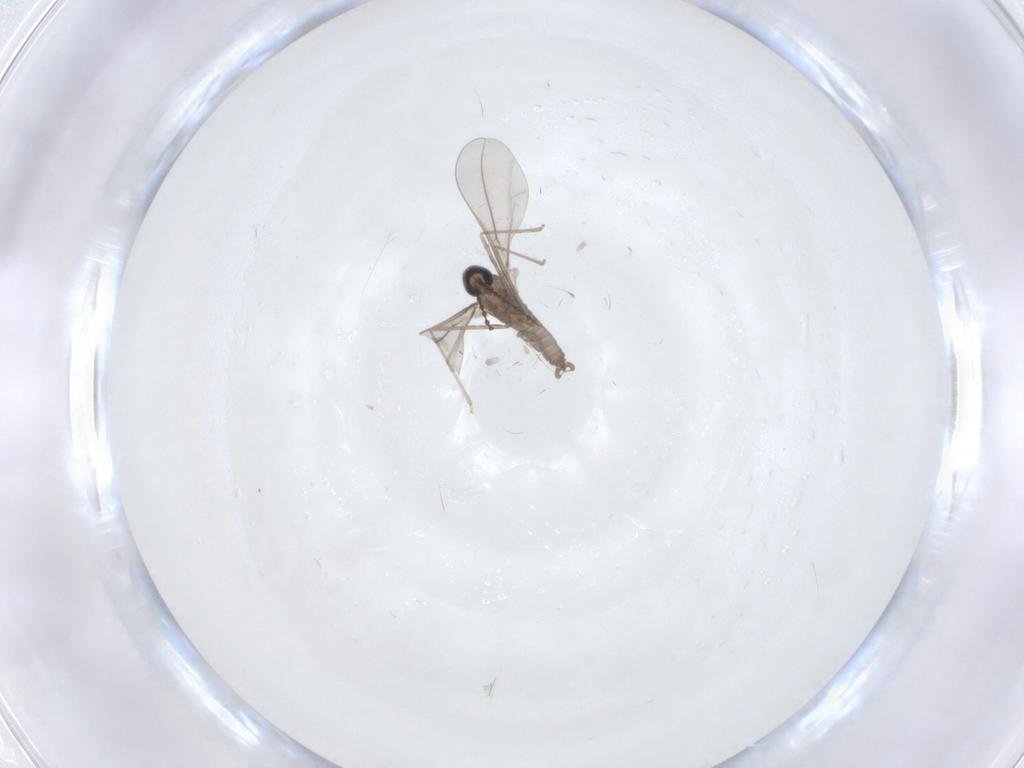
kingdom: Animalia
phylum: Arthropoda
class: Insecta
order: Diptera
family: Cecidomyiidae
